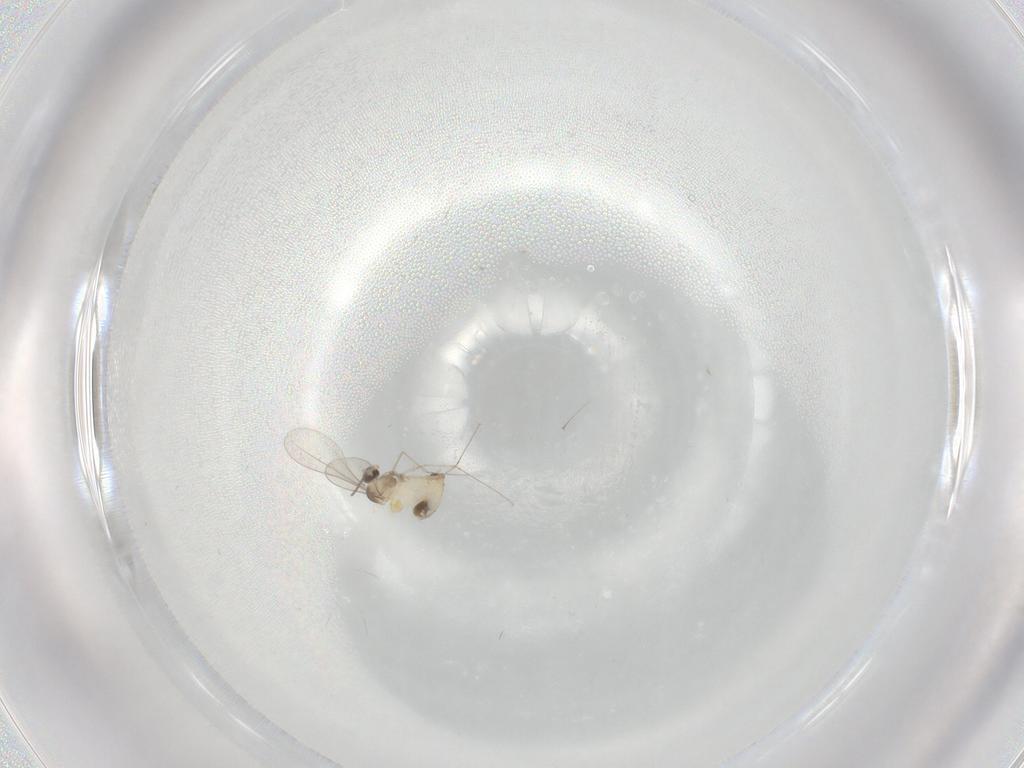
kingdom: Animalia
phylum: Arthropoda
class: Insecta
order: Diptera
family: Cecidomyiidae
